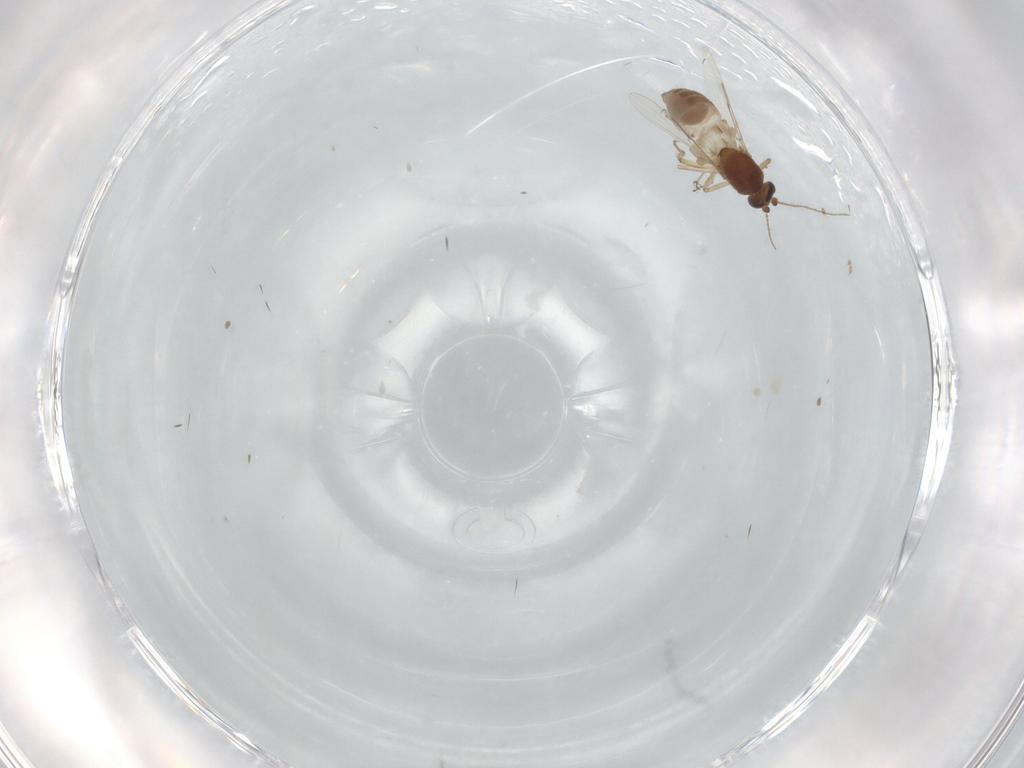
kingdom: Animalia
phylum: Arthropoda
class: Insecta
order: Diptera
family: Ceratopogonidae
